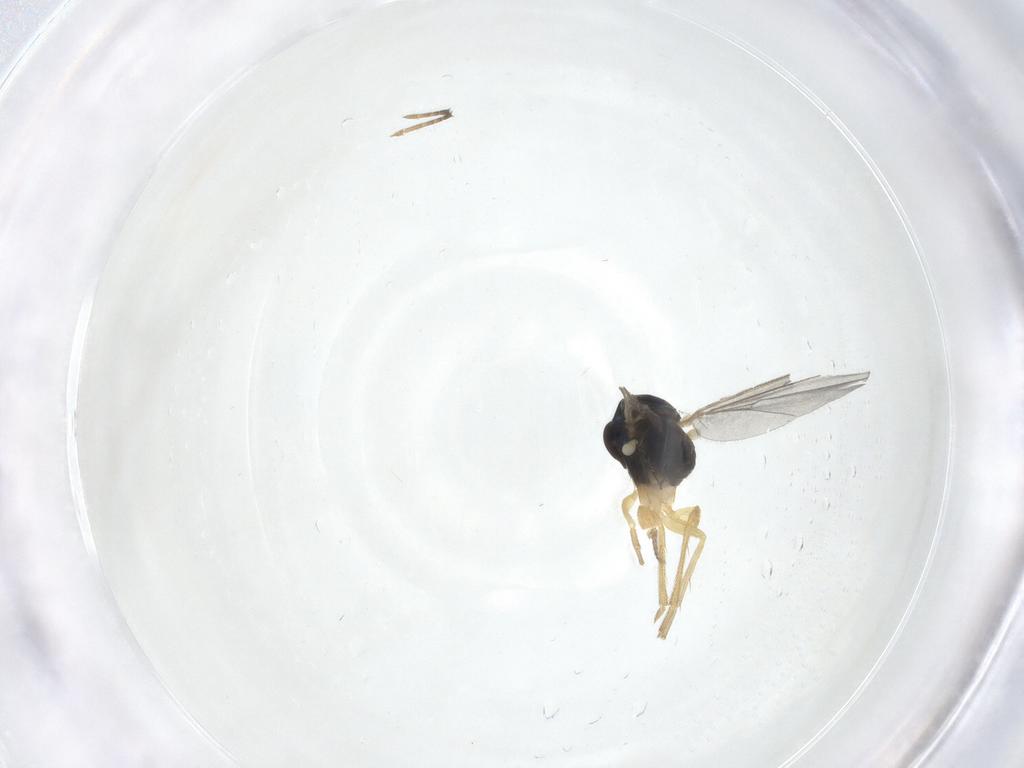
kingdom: Animalia
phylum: Arthropoda
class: Insecta
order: Diptera
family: Dolichopodidae
